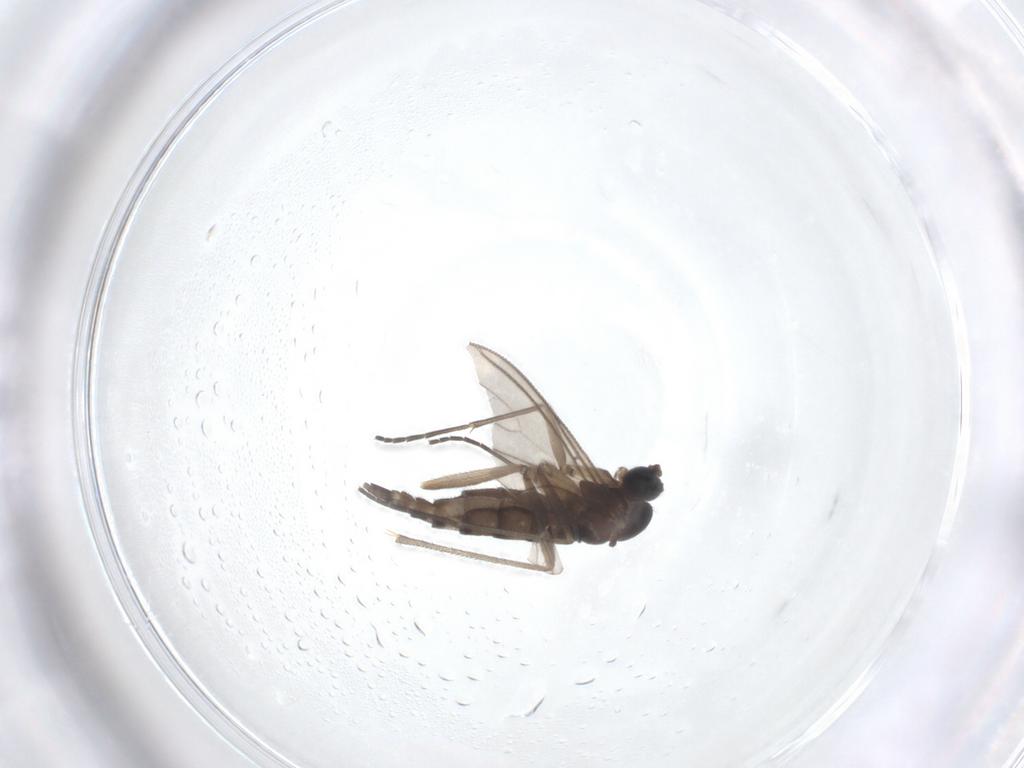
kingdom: Animalia
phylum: Arthropoda
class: Insecta
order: Diptera
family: Sciaridae
